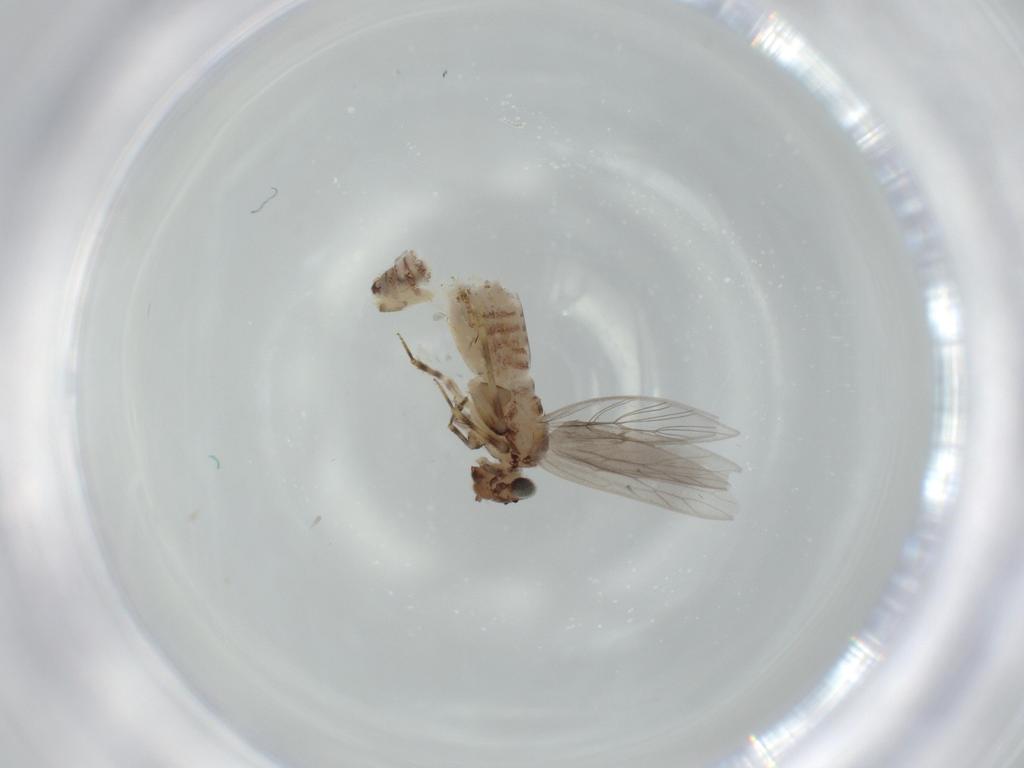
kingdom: Animalia
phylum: Arthropoda
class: Insecta
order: Psocodea
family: Lepidopsocidae
